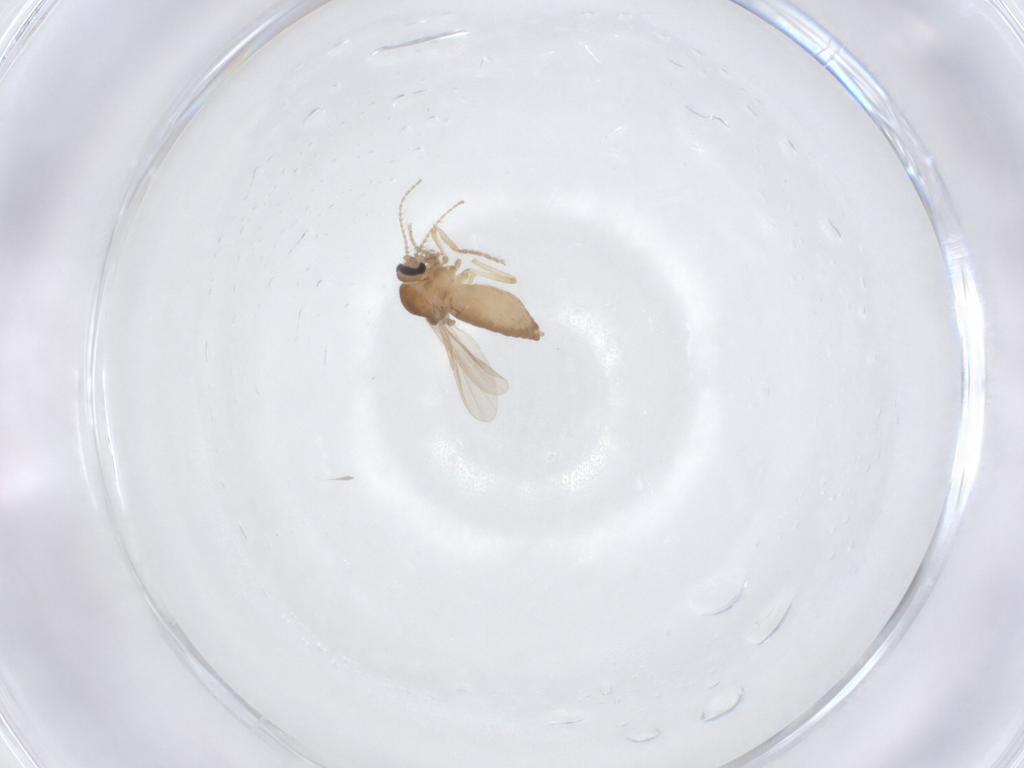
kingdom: Animalia
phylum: Arthropoda
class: Insecta
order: Diptera
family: Ceratopogonidae
